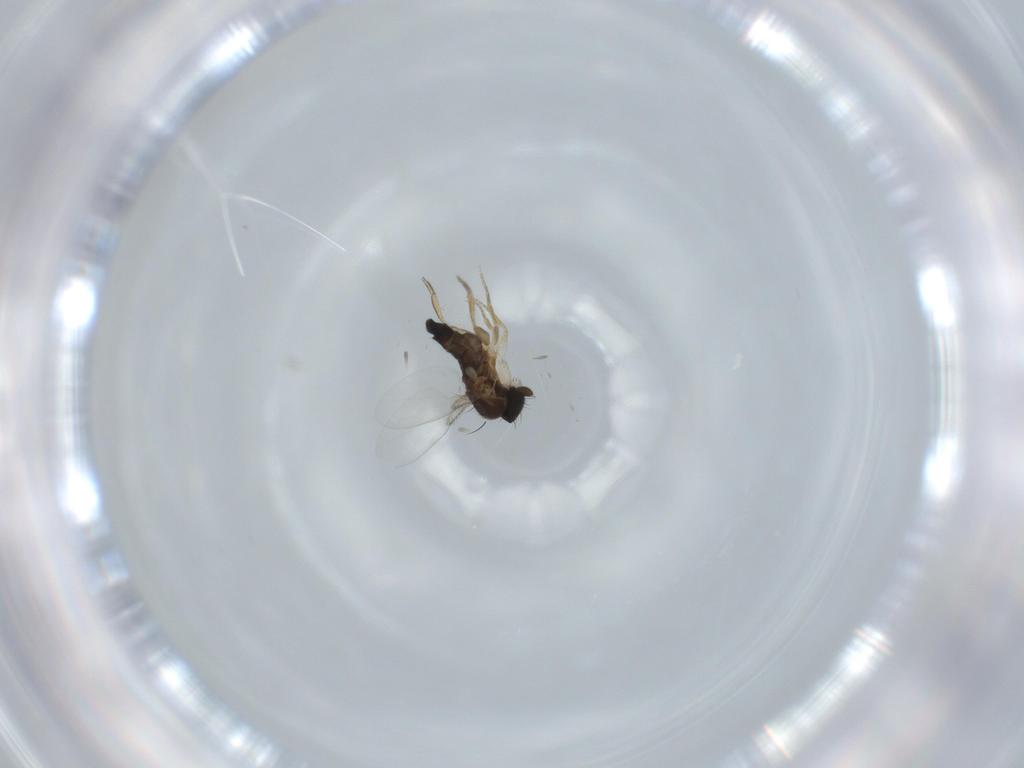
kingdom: Animalia
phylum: Arthropoda
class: Insecta
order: Diptera
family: Phoridae
